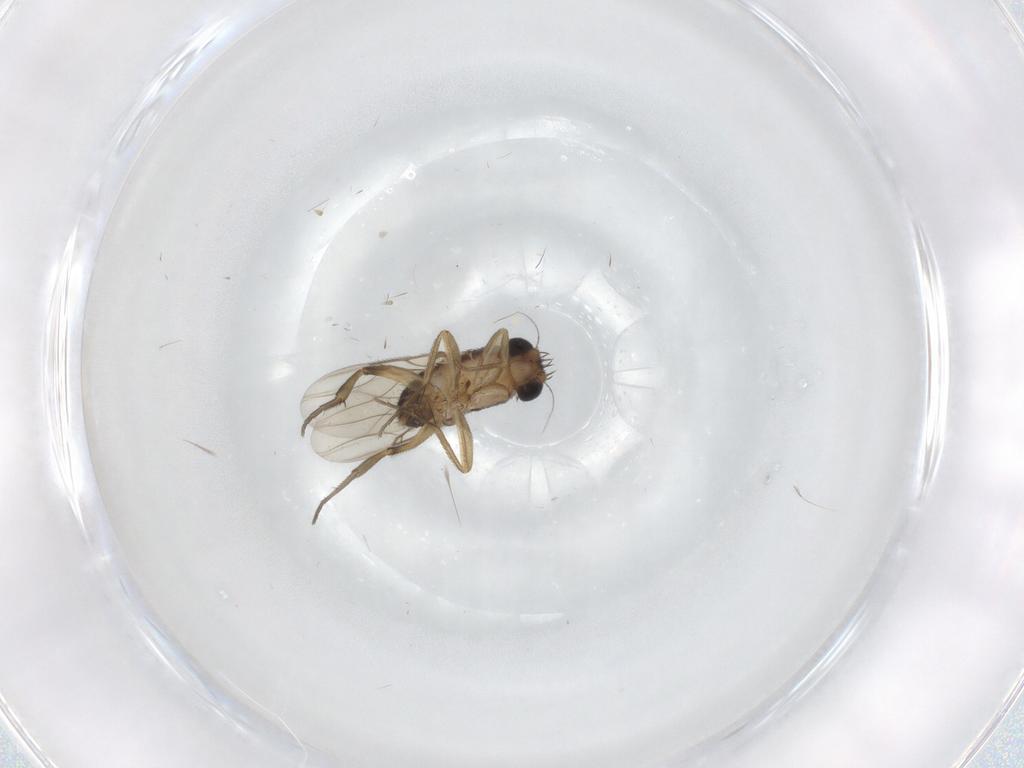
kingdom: Animalia
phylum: Arthropoda
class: Insecta
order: Diptera
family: Phoridae
